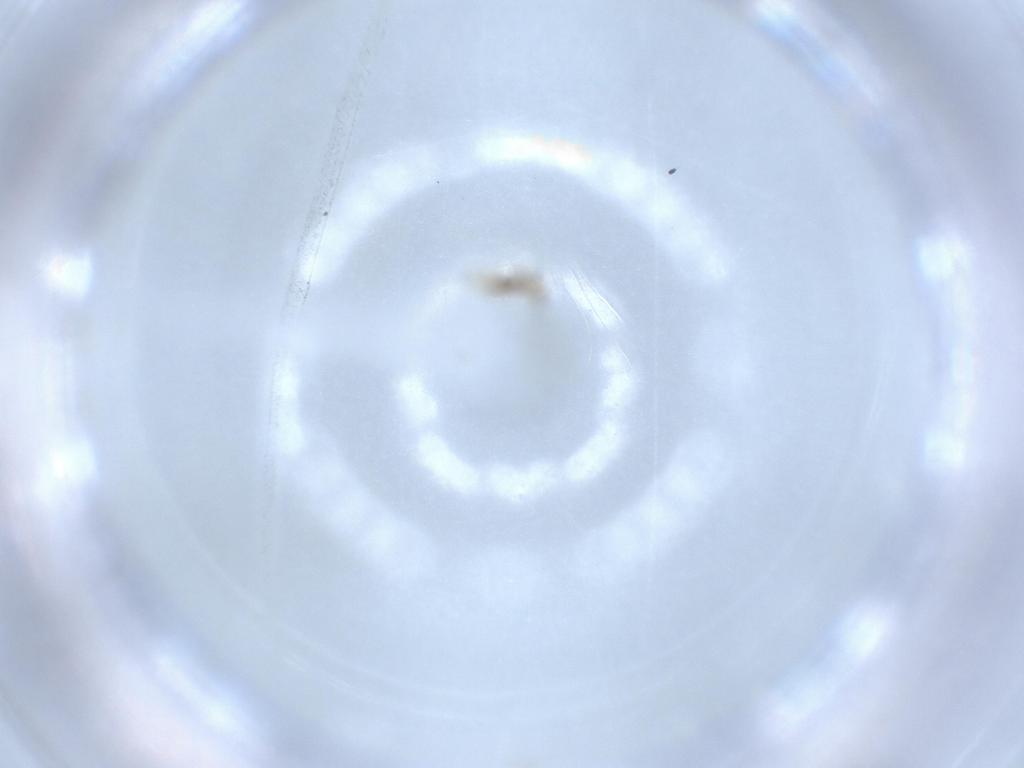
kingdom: Animalia
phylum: Arthropoda
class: Insecta
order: Diptera
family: Cecidomyiidae
